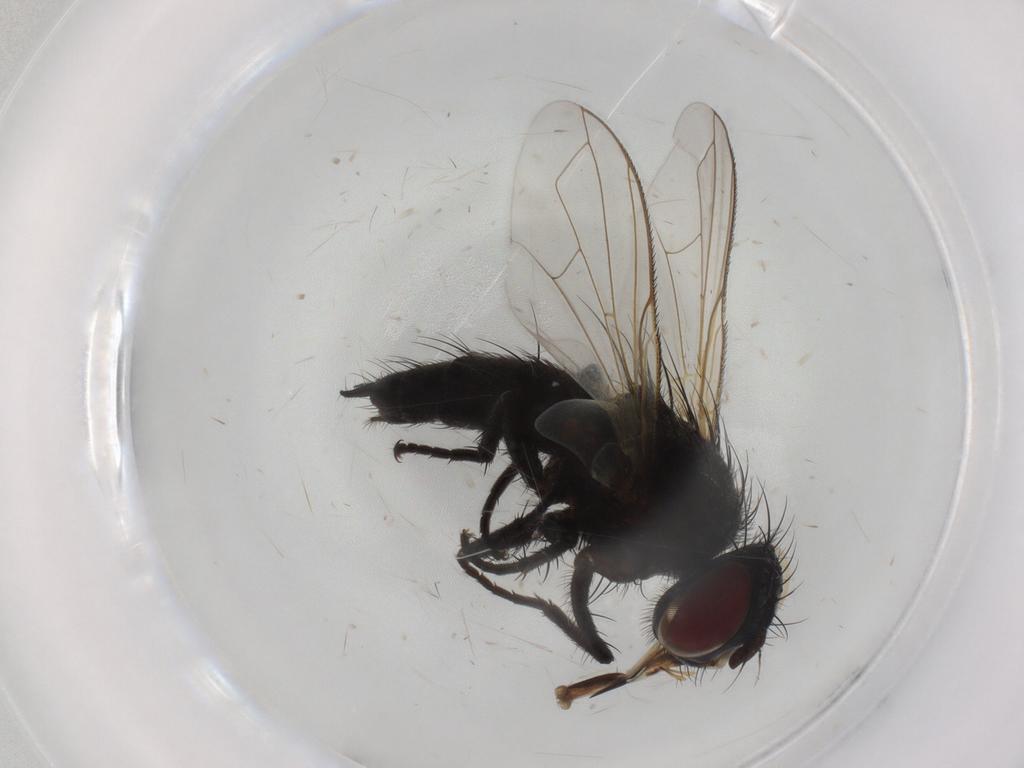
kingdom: Animalia
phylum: Arthropoda
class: Insecta
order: Diptera
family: Tachinidae
